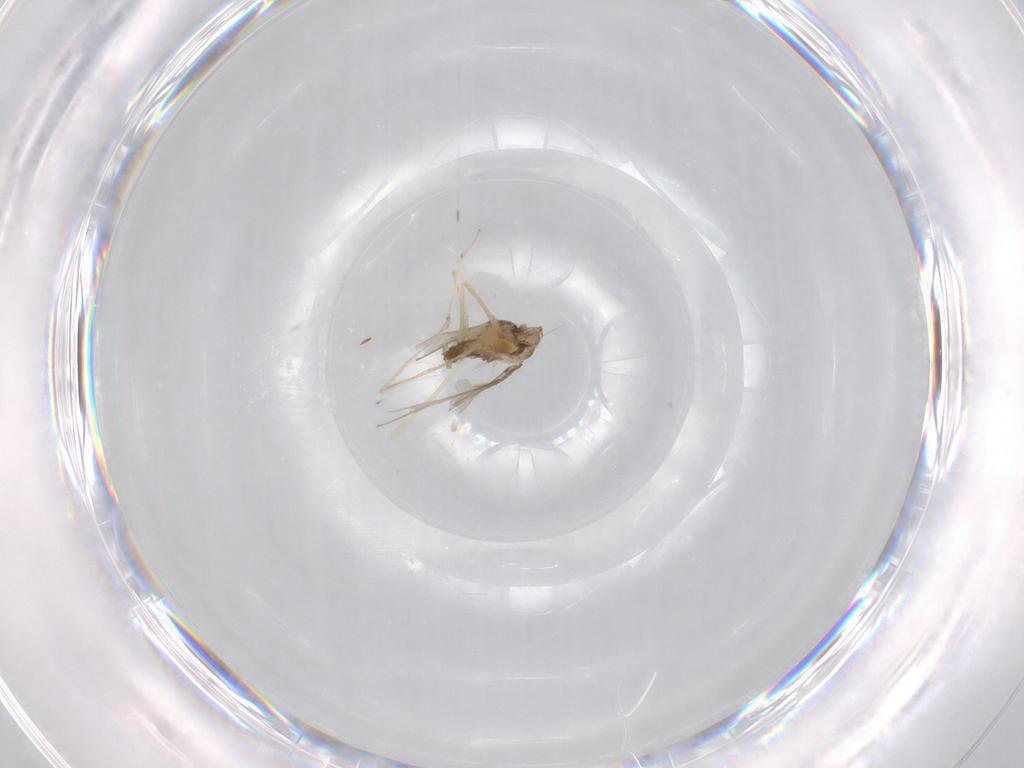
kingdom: Animalia
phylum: Arthropoda
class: Insecta
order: Diptera
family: Cecidomyiidae
